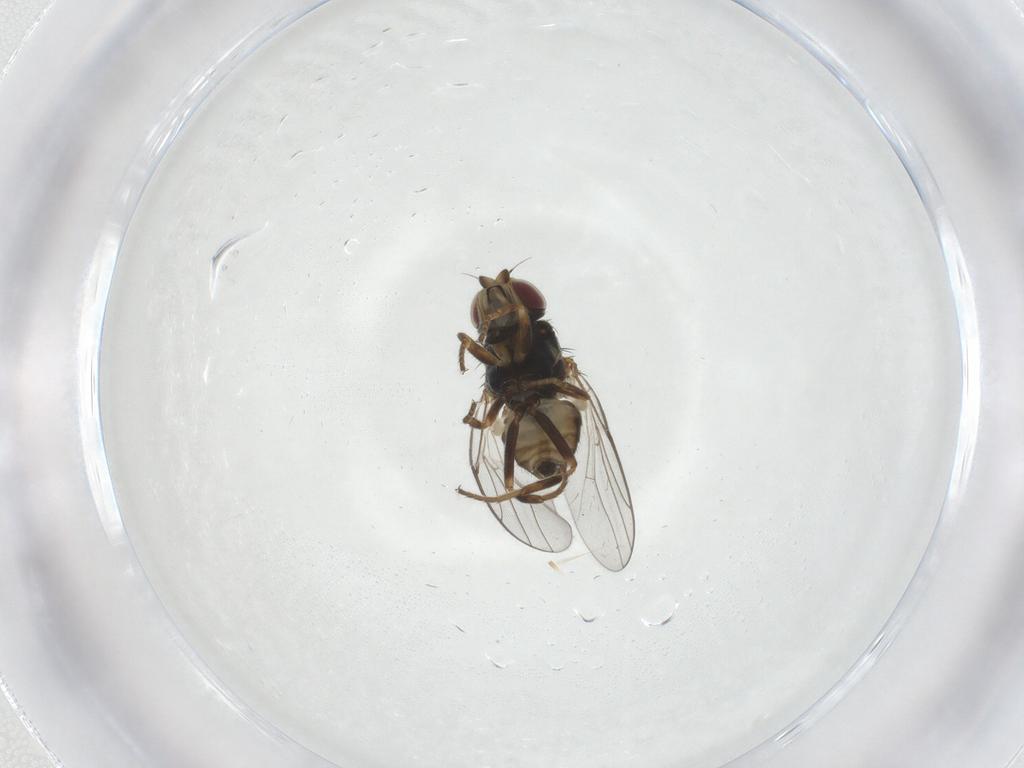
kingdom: Animalia
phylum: Arthropoda
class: Insecta
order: Diptera
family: Chloropidae
